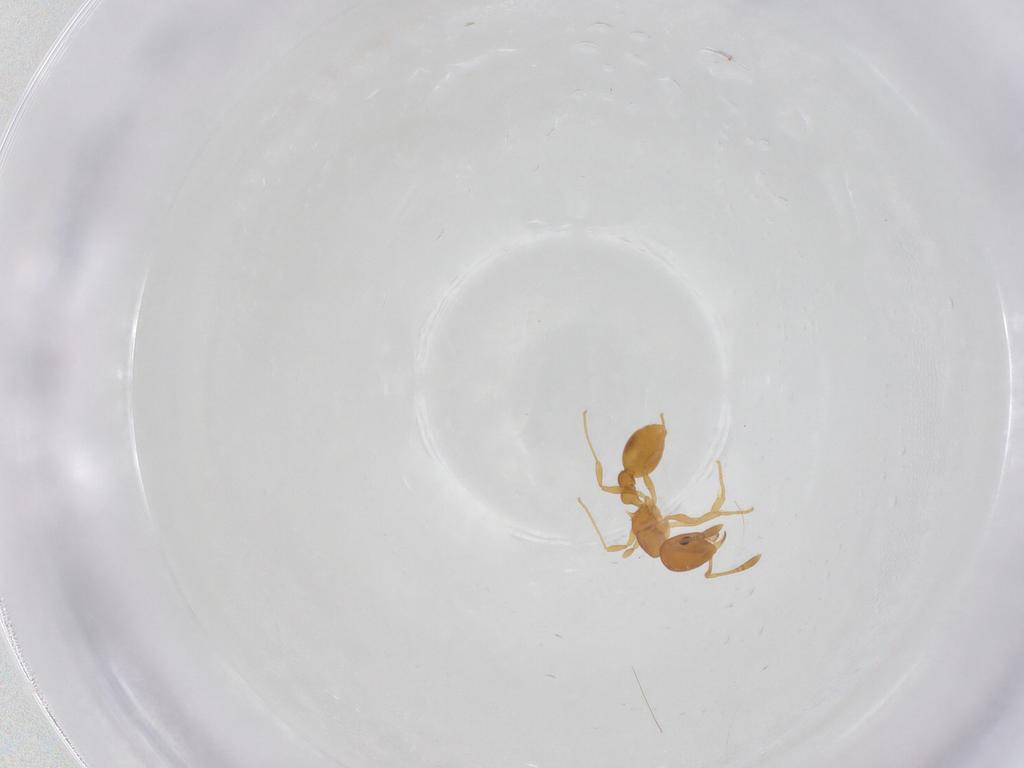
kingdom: Animalia
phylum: Arthropoda
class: Insecta
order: Hymenoptera
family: Formicidae
